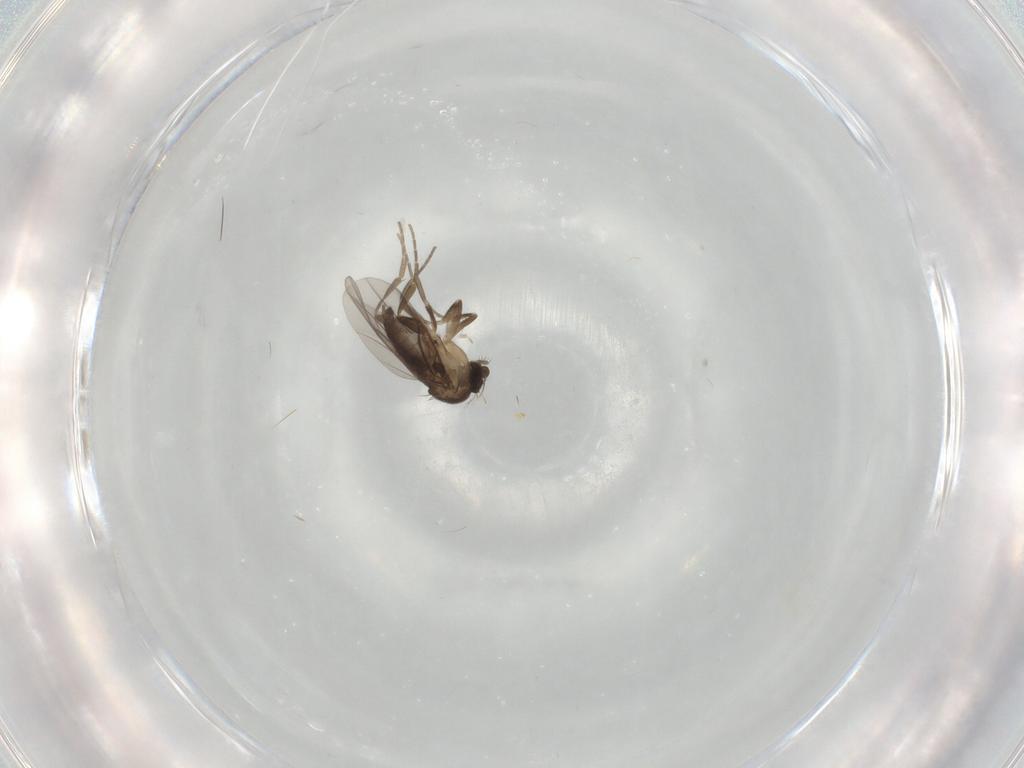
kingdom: Animalia
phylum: Arthropoda
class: Insecta
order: Diptera
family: Phoridae
